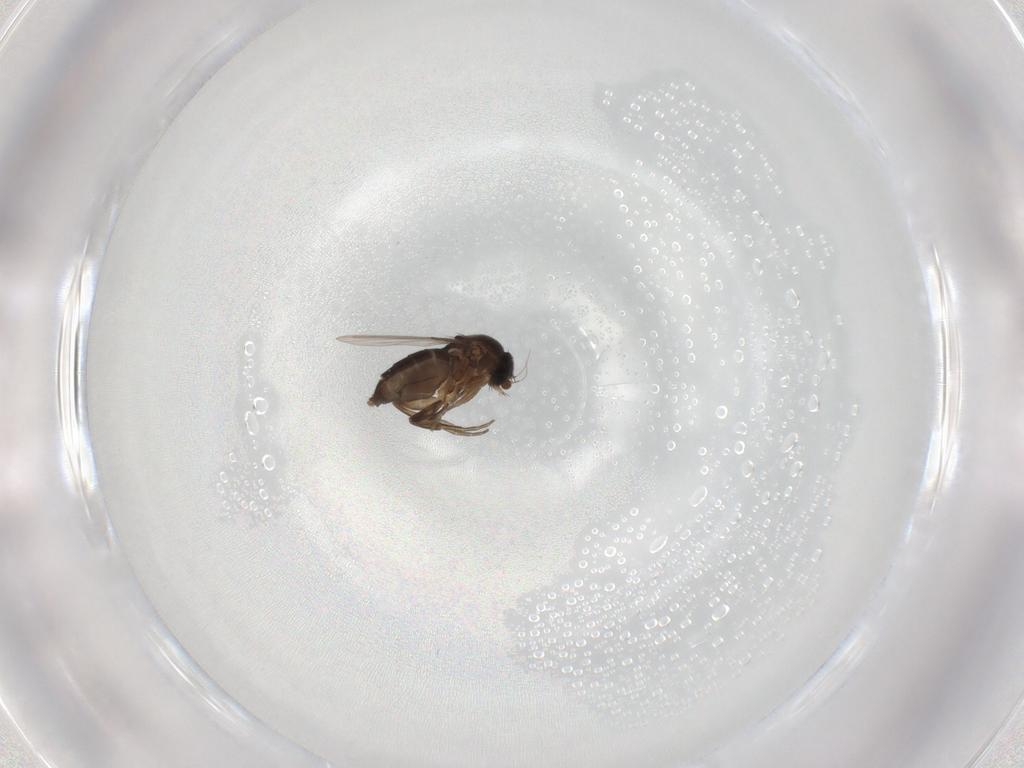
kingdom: Animalia
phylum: Arthropoda
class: Insecta
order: Diptera
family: Phoridae
